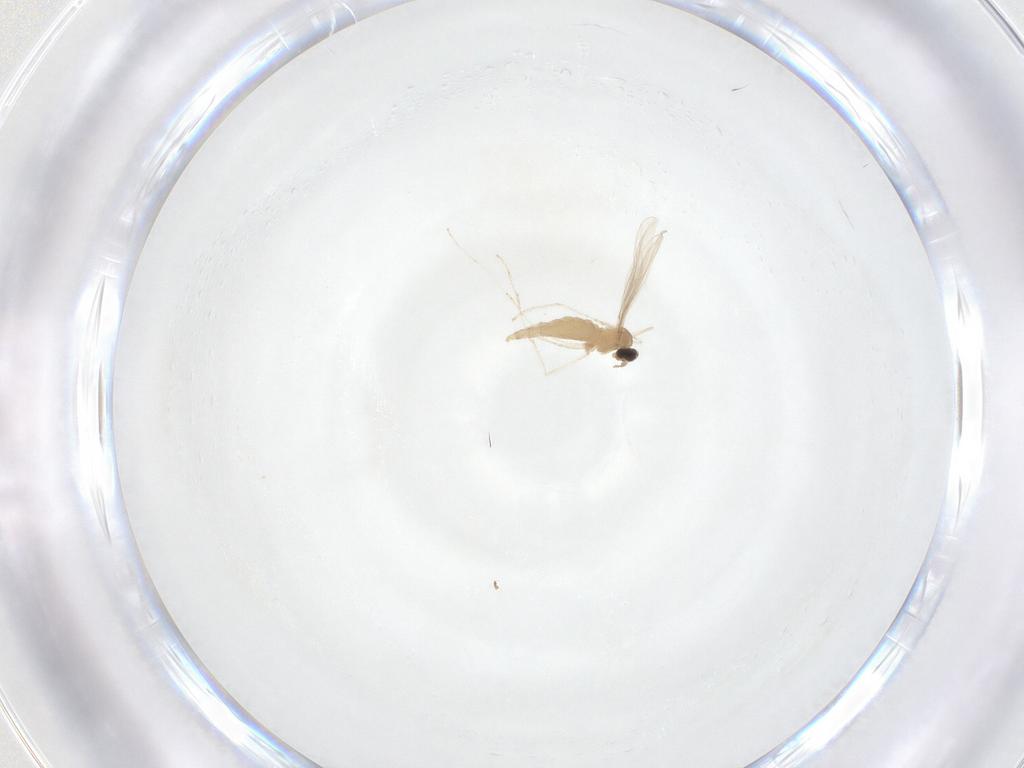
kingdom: Animalia
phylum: Arthropoda
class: Insecta
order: Diptera
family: Cecidomyiidae
